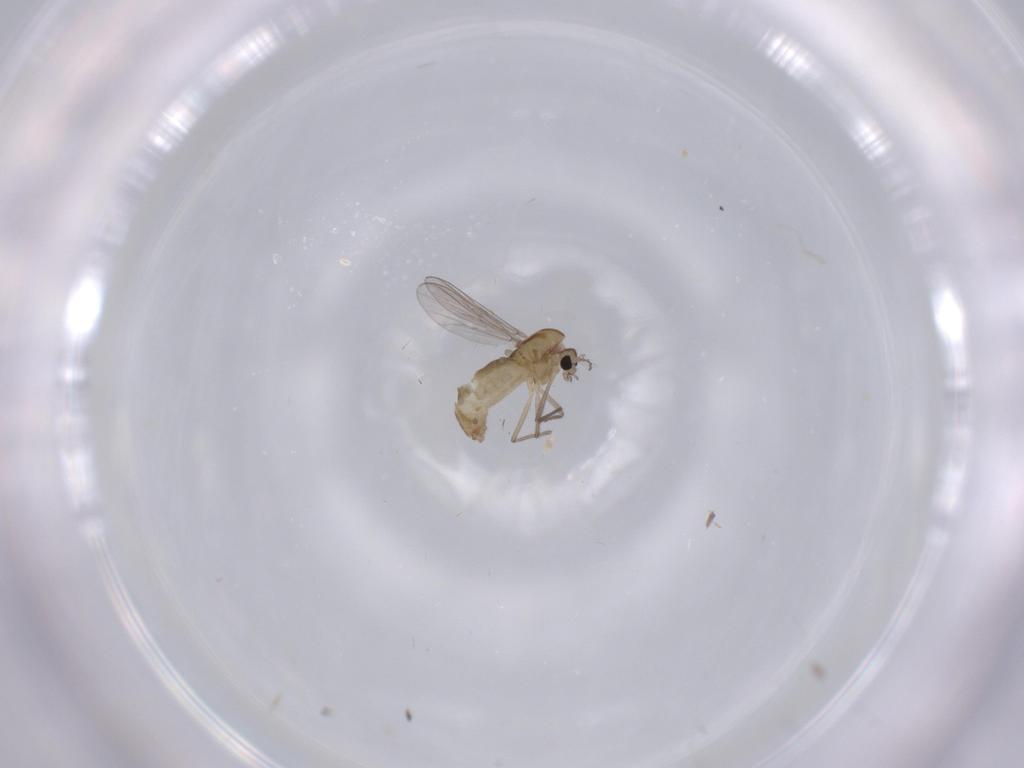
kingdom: Animalia
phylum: Arthropoda
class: Insecta
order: Diptera
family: Chironomidae
